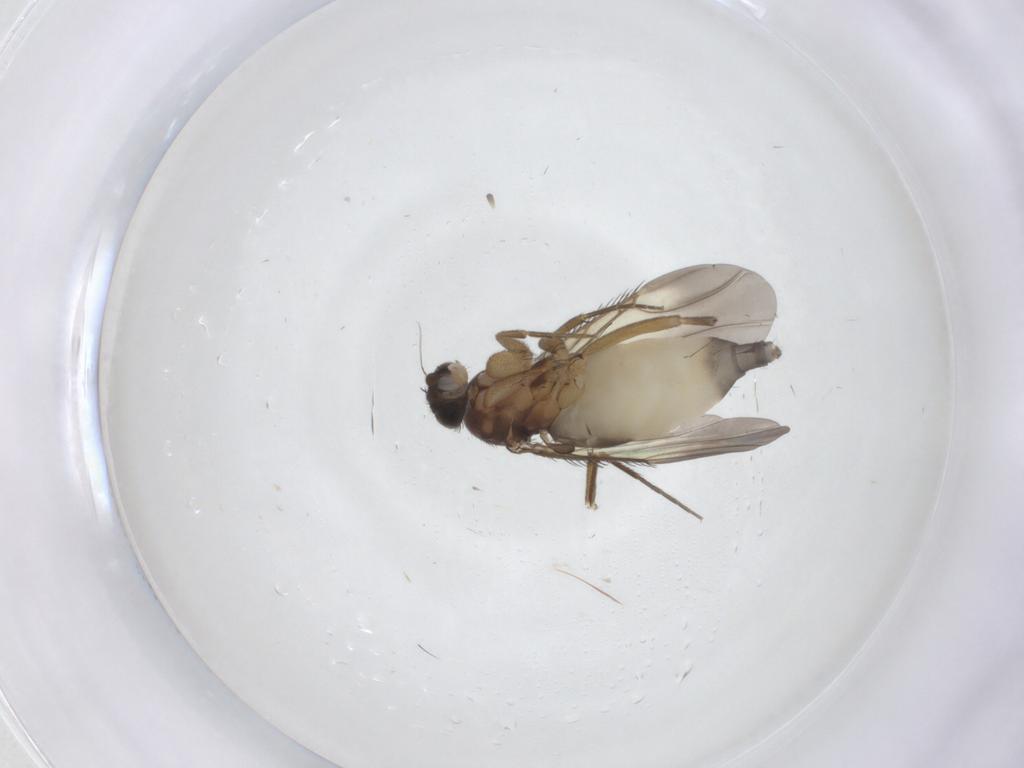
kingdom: Animalia
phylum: Arthropoda
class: Insecta
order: Diptera
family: Phoridae
